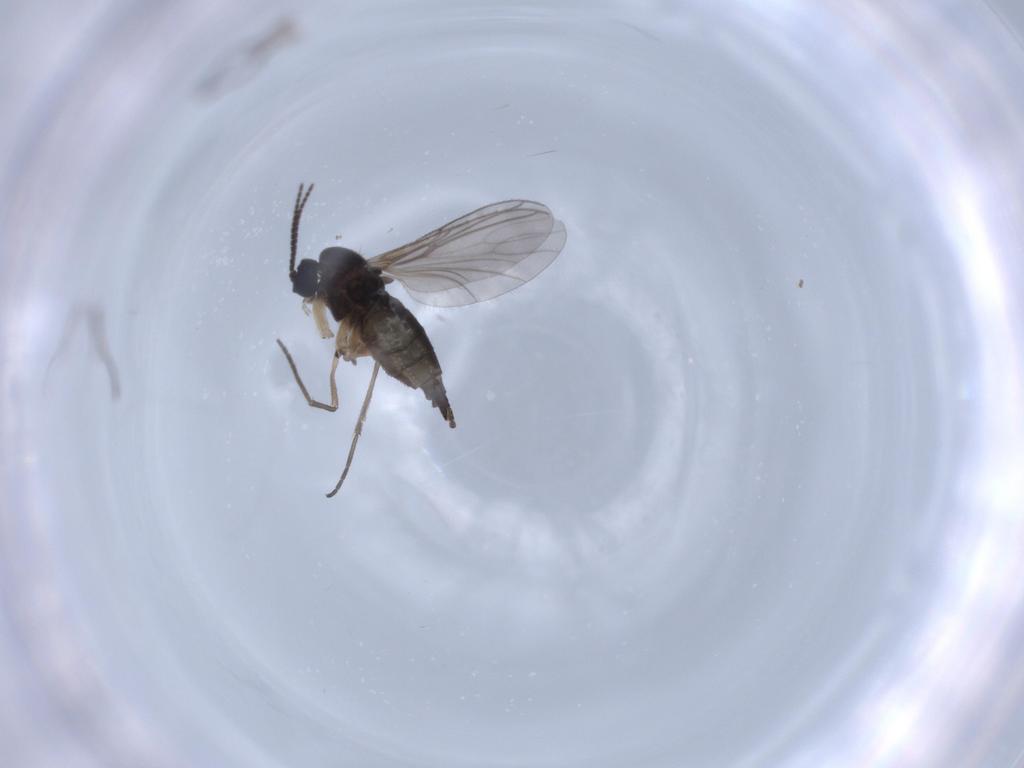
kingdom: Animalia
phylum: Arthropoda
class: Insecta
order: Diptera
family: Sciaridae
